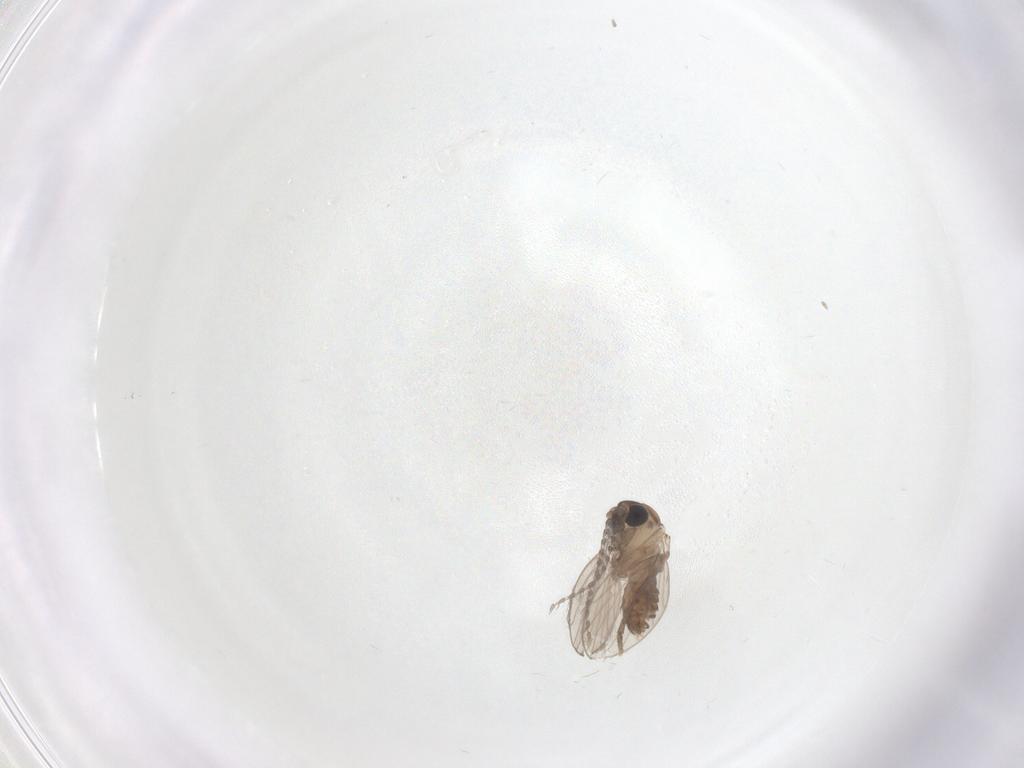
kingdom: Animalia
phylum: Arthropoda
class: Insecta
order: Diptera
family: Psychodidae
